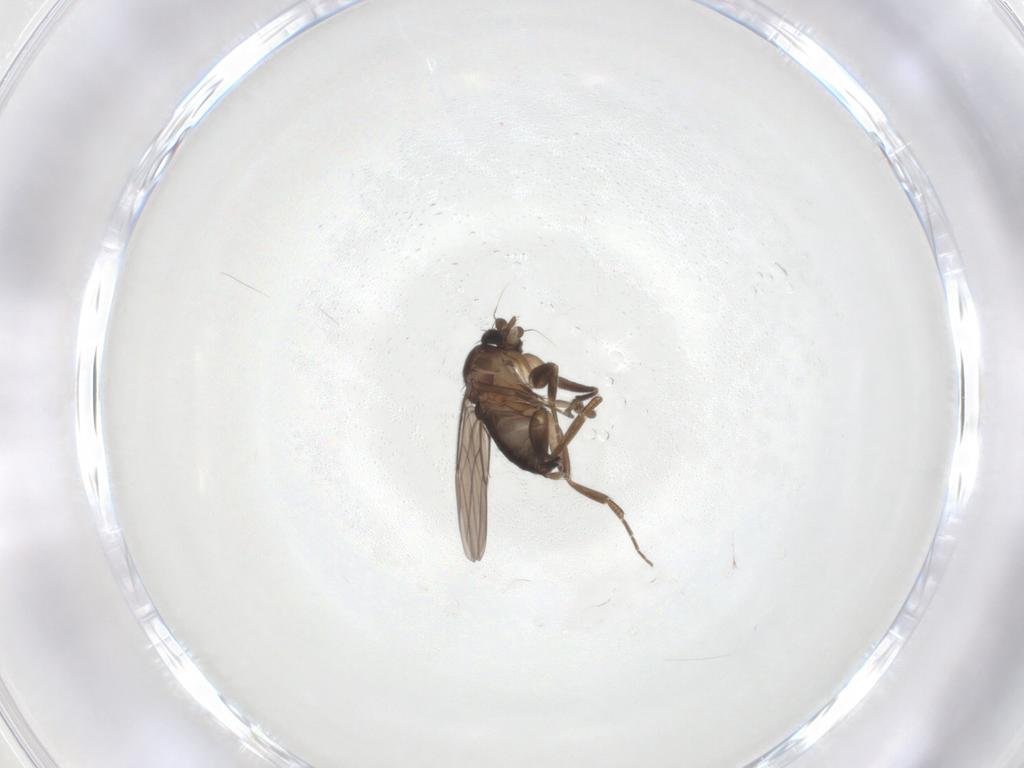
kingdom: Animalia
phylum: Arthropoda
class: Insecta
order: Diptera
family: Phoridae
